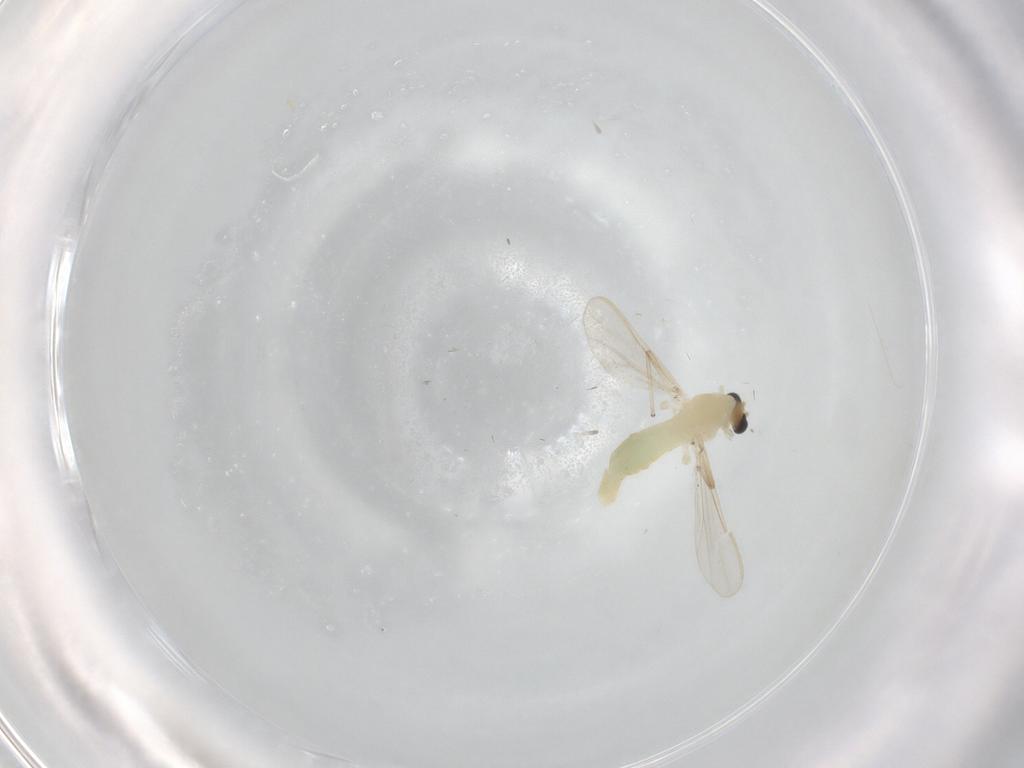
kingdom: Animalia
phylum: Arthropoda
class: Insecta
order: Diptera
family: Chironomidae
